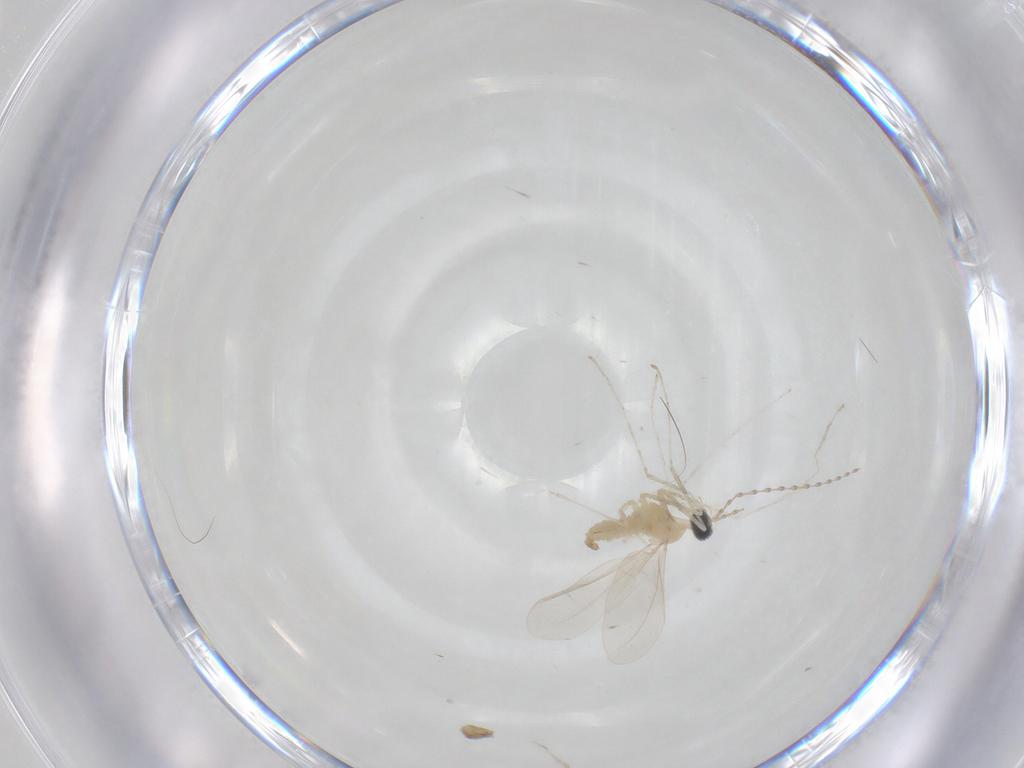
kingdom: Animalia
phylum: Arthropoda
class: Insecta
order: Diptera
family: Cecidomyiidae
